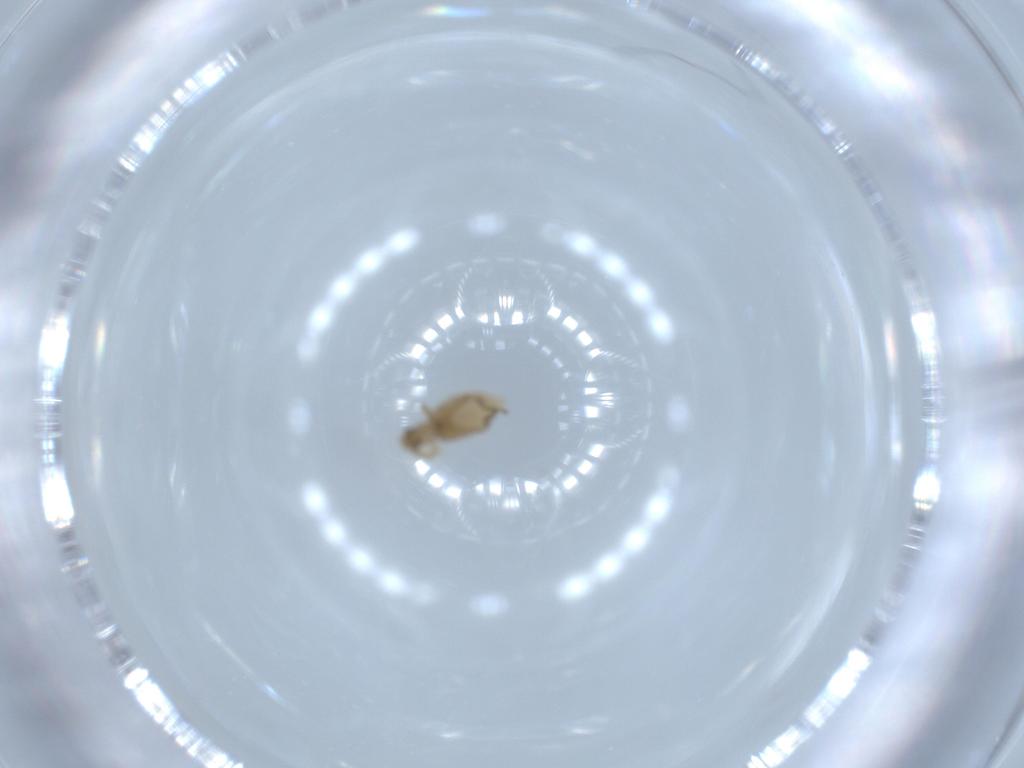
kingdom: Animalia
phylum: Arthropoda
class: Insecta
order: Diptera
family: Phoridae
